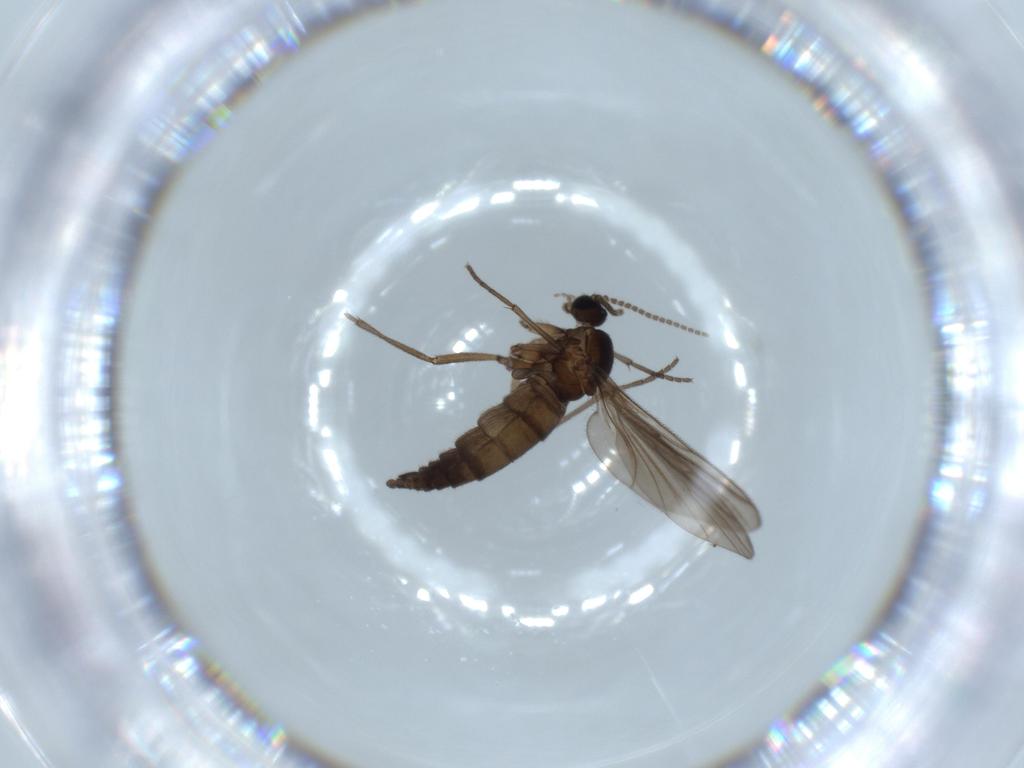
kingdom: Animalia
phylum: Arthropoda
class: Insecta
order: Diptera
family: Sciaridae
